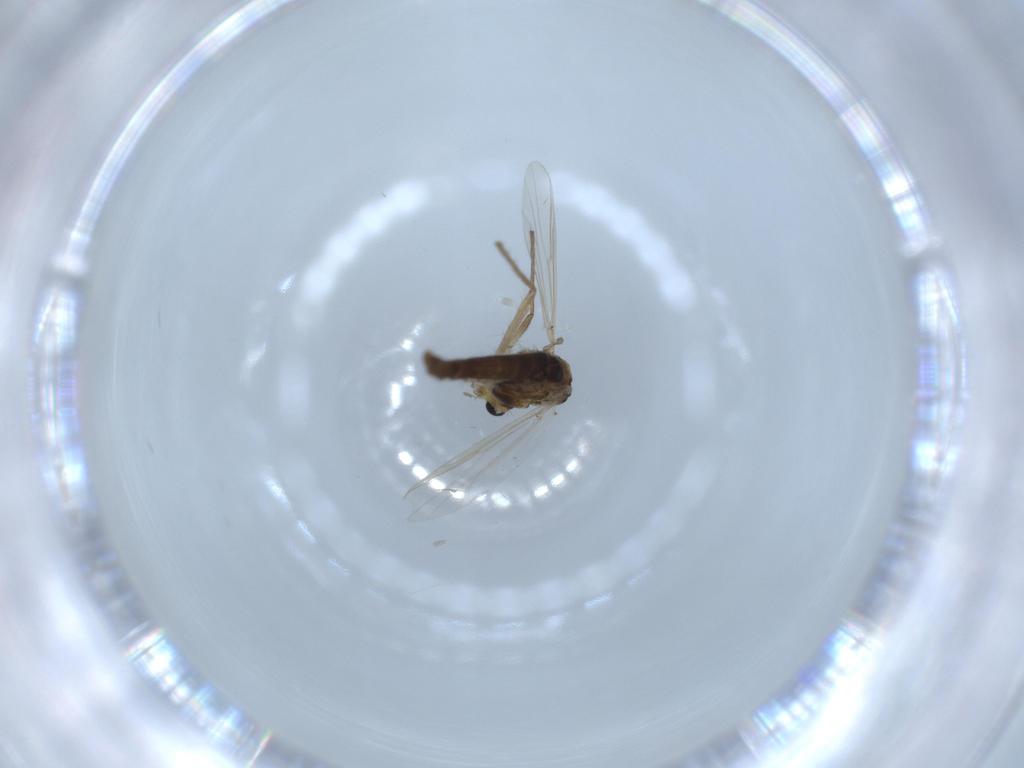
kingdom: Animalia
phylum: Arthropoda
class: Insecta
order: Diptera
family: Chironomidae
